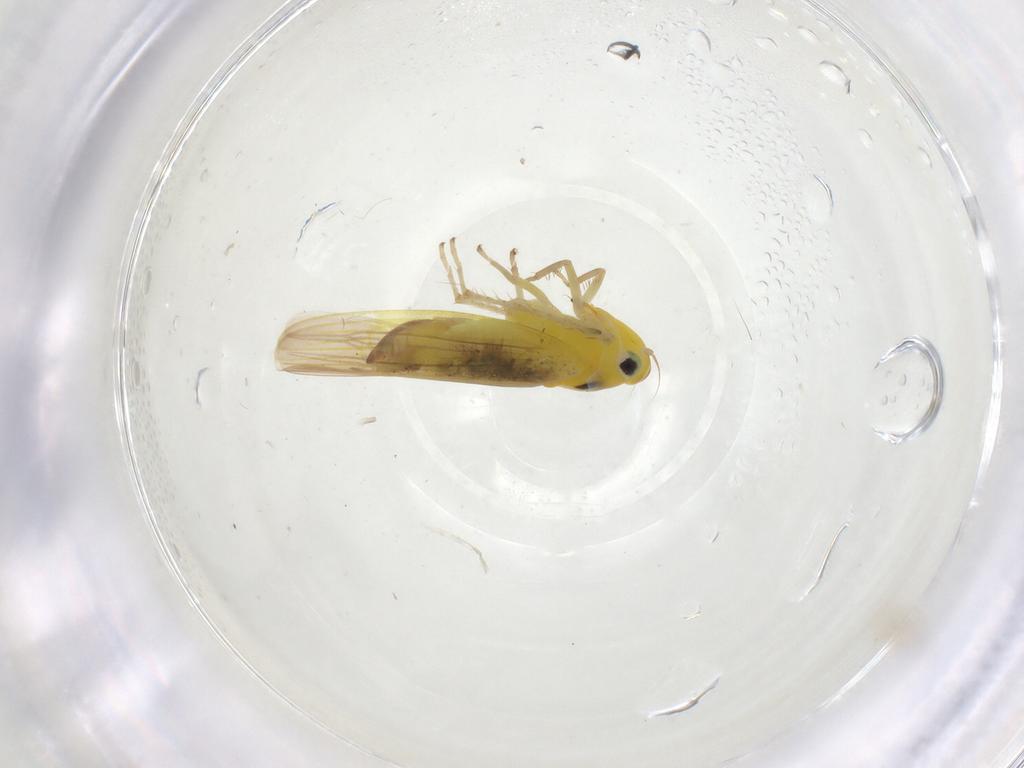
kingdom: Animalia
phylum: Arthropoda
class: Insecta
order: Hemiptera
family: Cicadellidae
